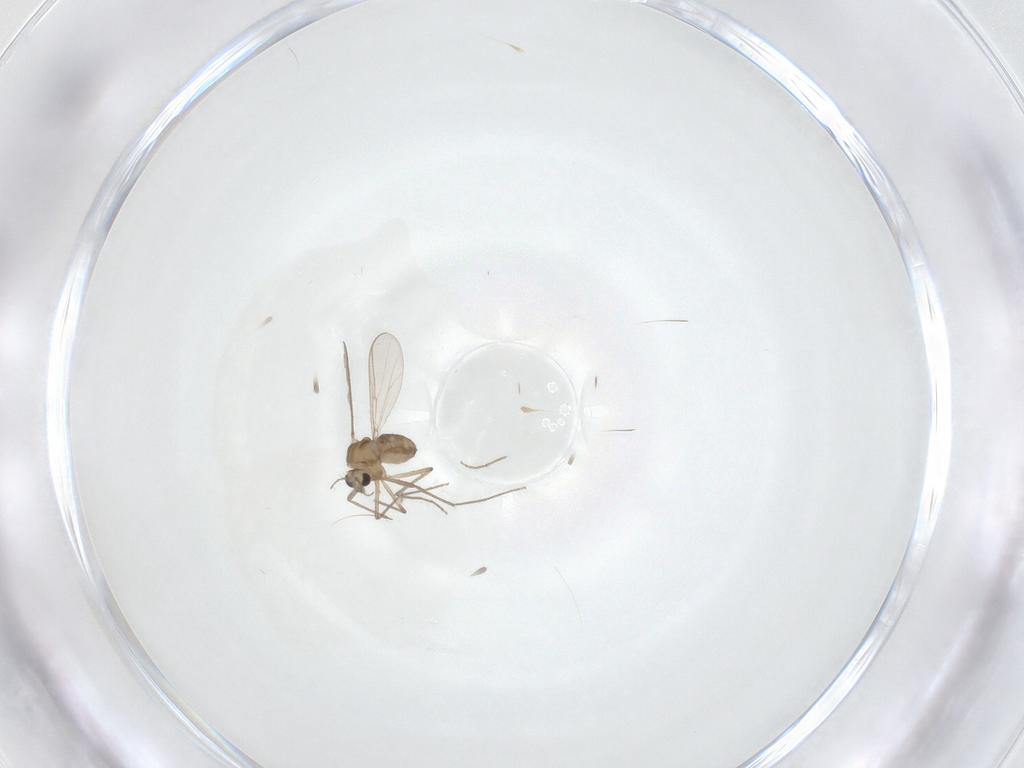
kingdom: Animalia
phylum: Arthropoda
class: Insecta
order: Diptera
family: Chironomidae
